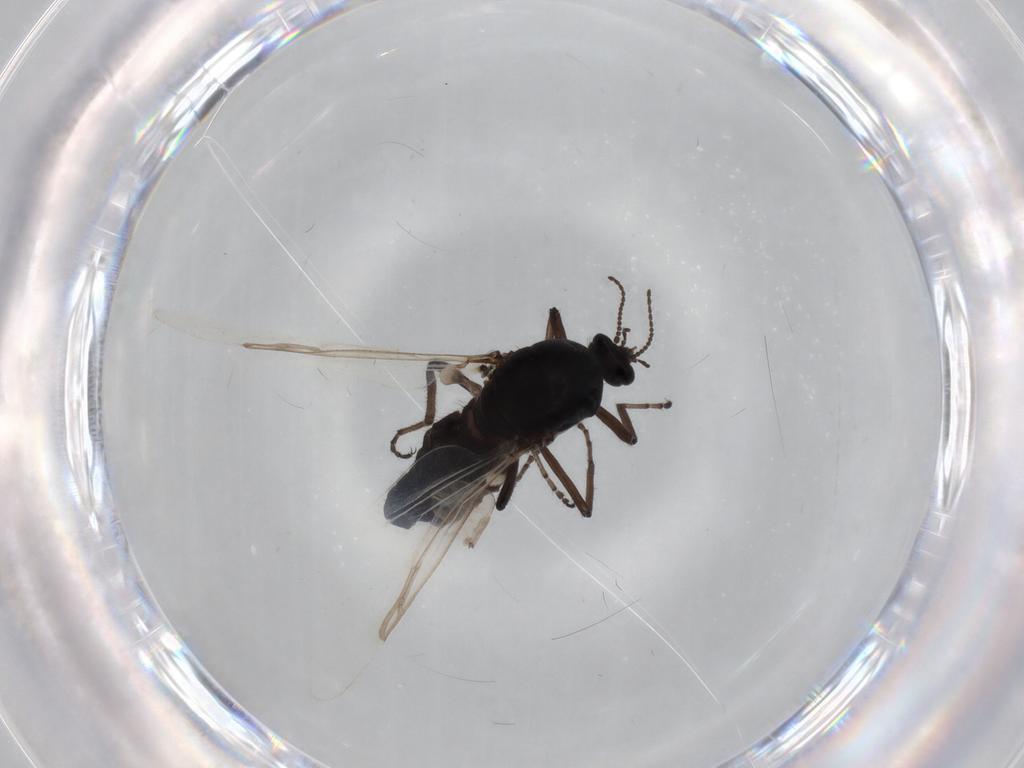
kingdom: Animalia
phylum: Arthropoda
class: Insecta
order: Diptera
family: Ceratopogonidae
